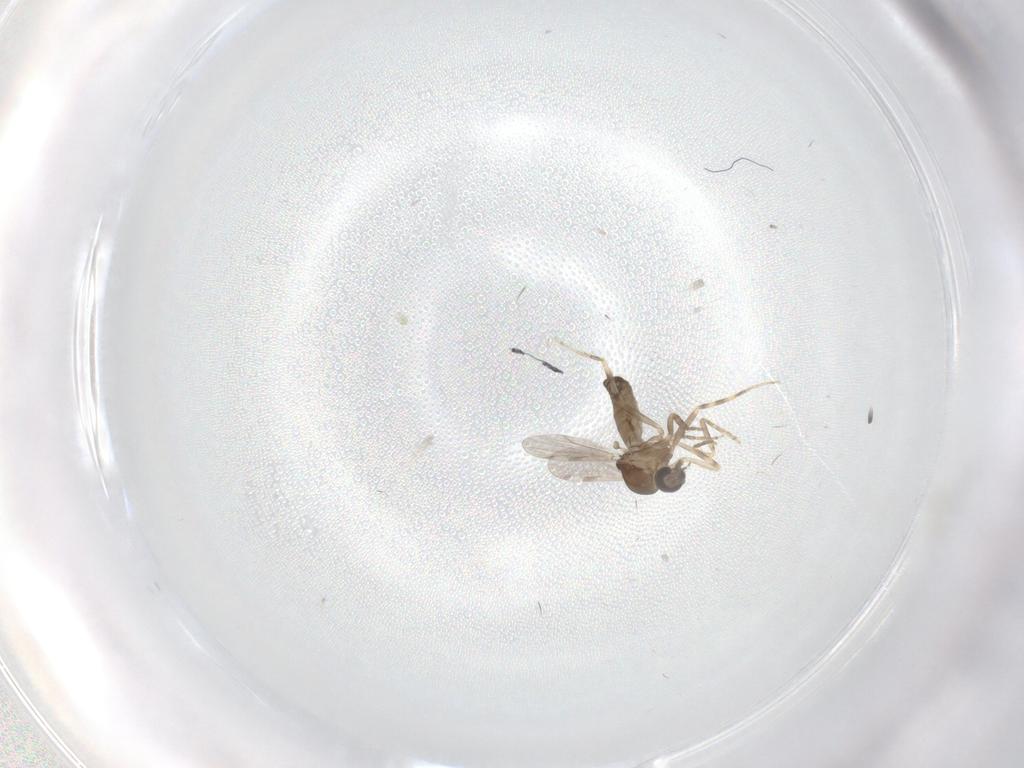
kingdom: Animalia
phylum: Arthropoda
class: Insecta
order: Diptera
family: Ceratopogonidae
